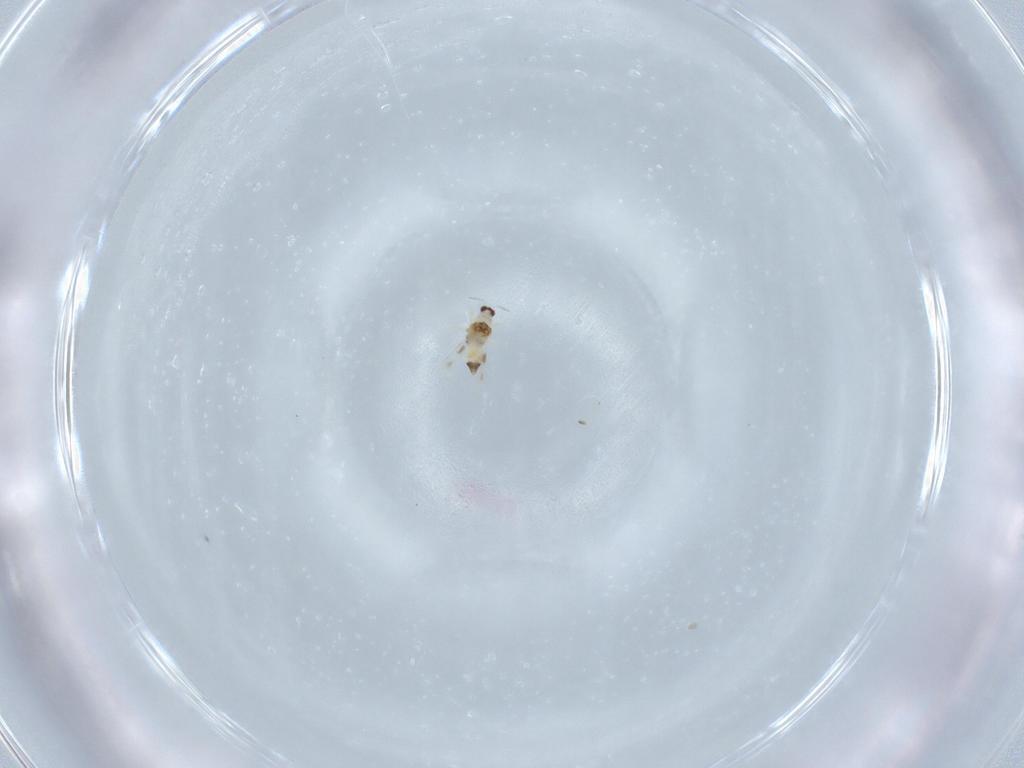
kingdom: Animalia
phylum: Arthropoda
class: Insecta
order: Thysanoptera
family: Thripidae
